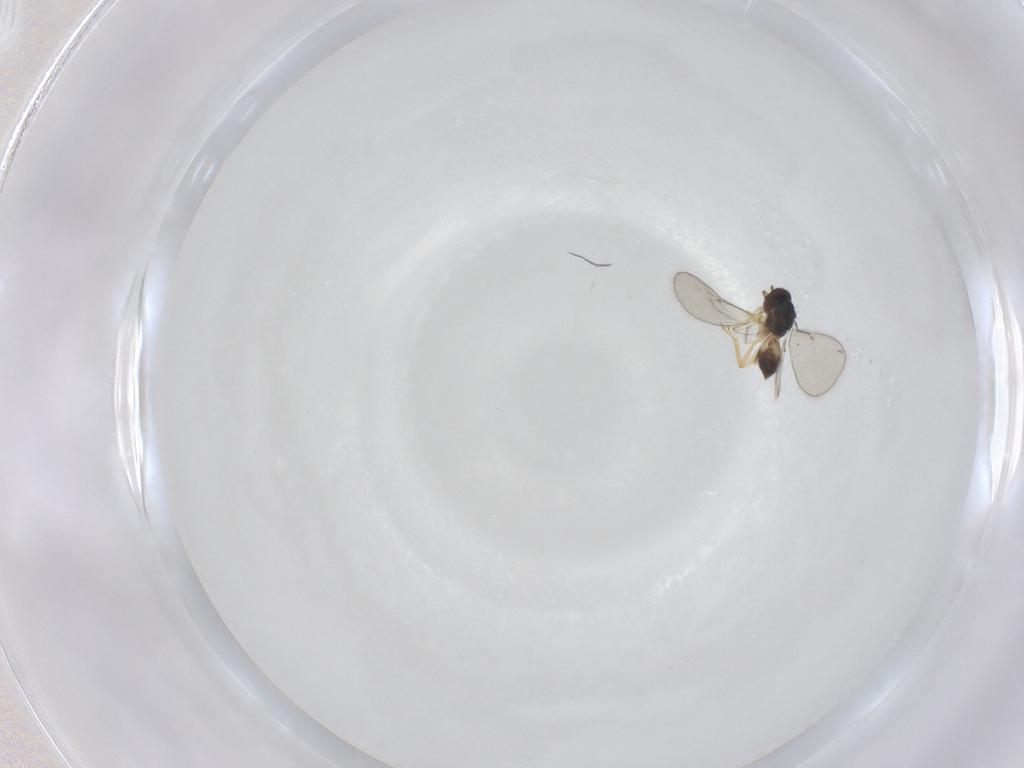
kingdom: Animalia
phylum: Arthropoda
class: Insecta
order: Hymenoptera
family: Eulophidae
